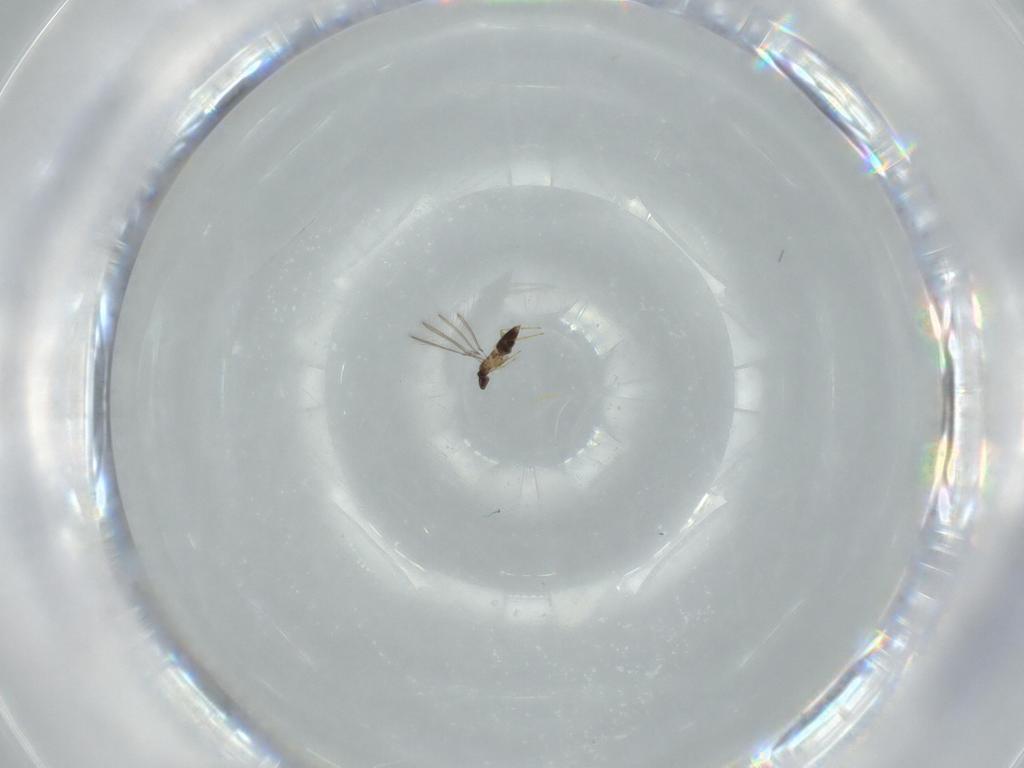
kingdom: Animalia
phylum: Arthropoda
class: Insecta
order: Hymenoptera
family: Mymaridae
